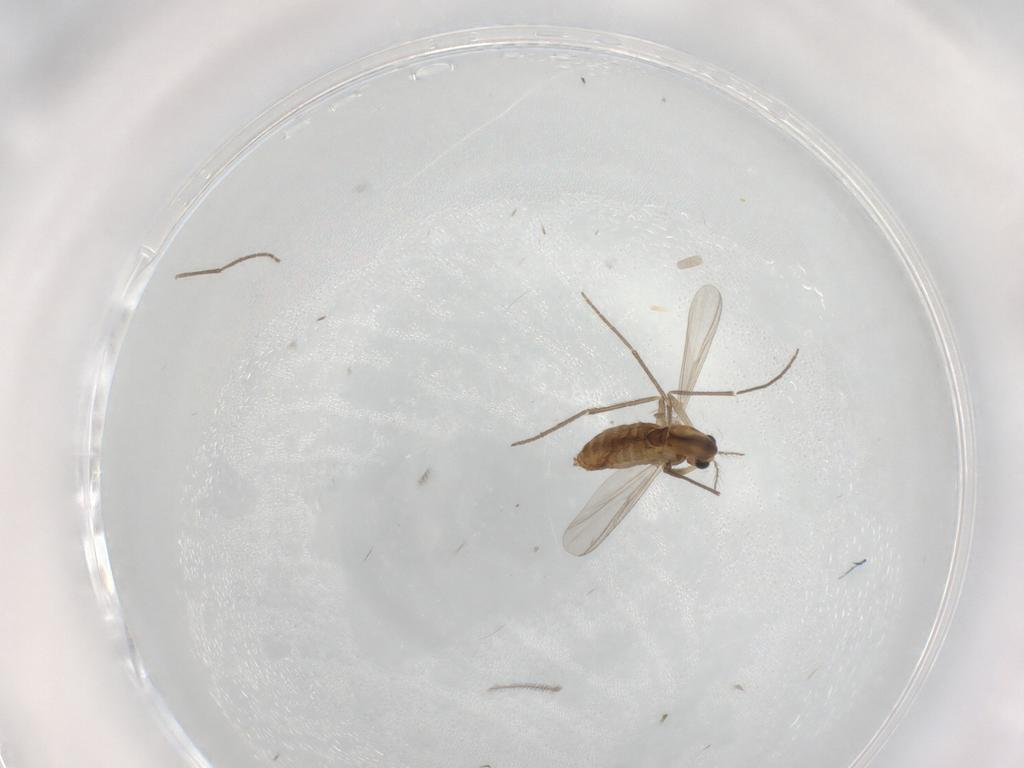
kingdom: Animalia
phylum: Arthropoda
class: Insecta
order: Diptera
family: Chironomidae
